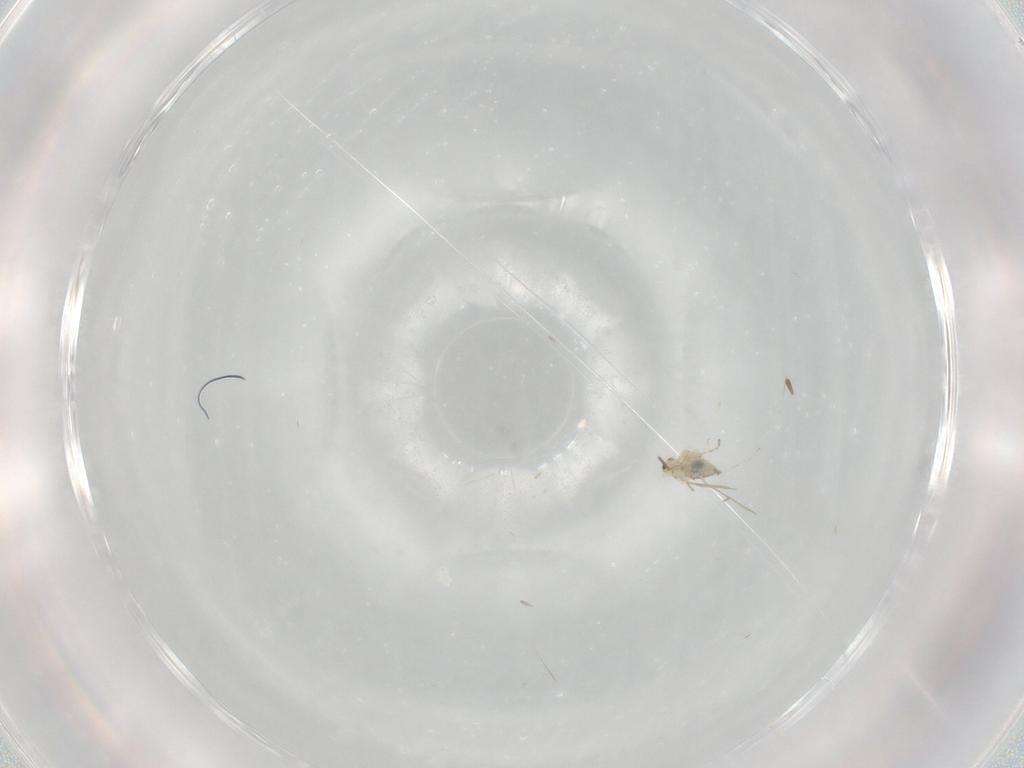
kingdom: Animalia
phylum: Arthropoda
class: Insecta
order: Diptera
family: Cecidomyiidae
